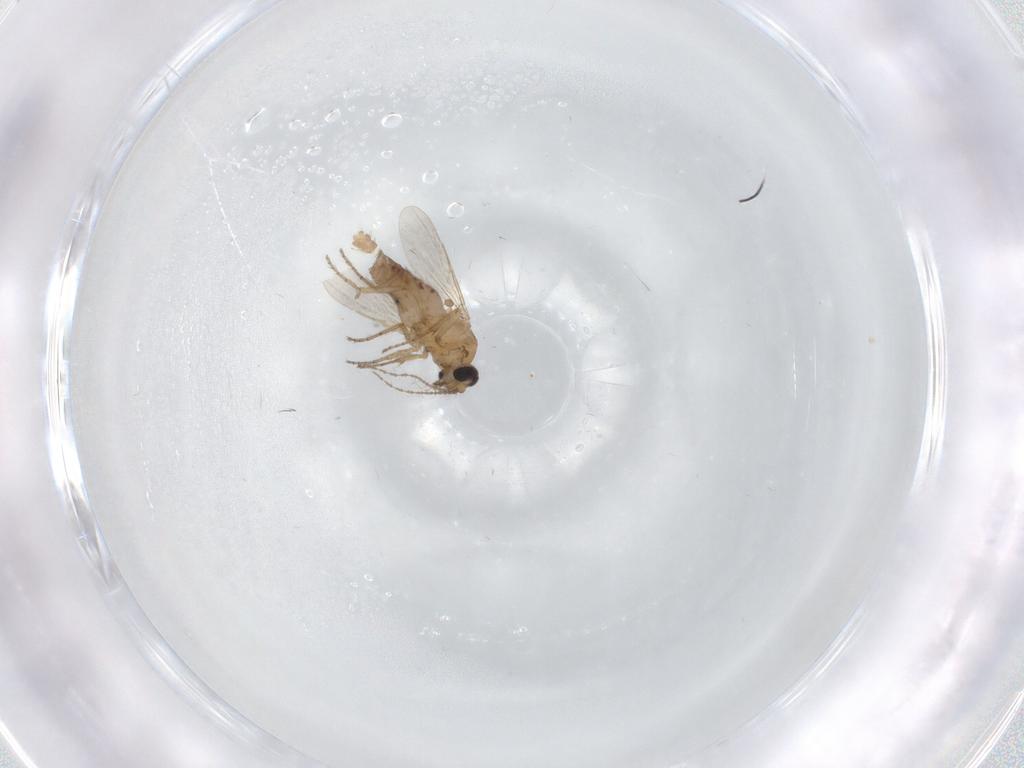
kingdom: Animalia
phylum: Arthropoda
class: Insecta
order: Diptera
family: Ceratopogonidae
